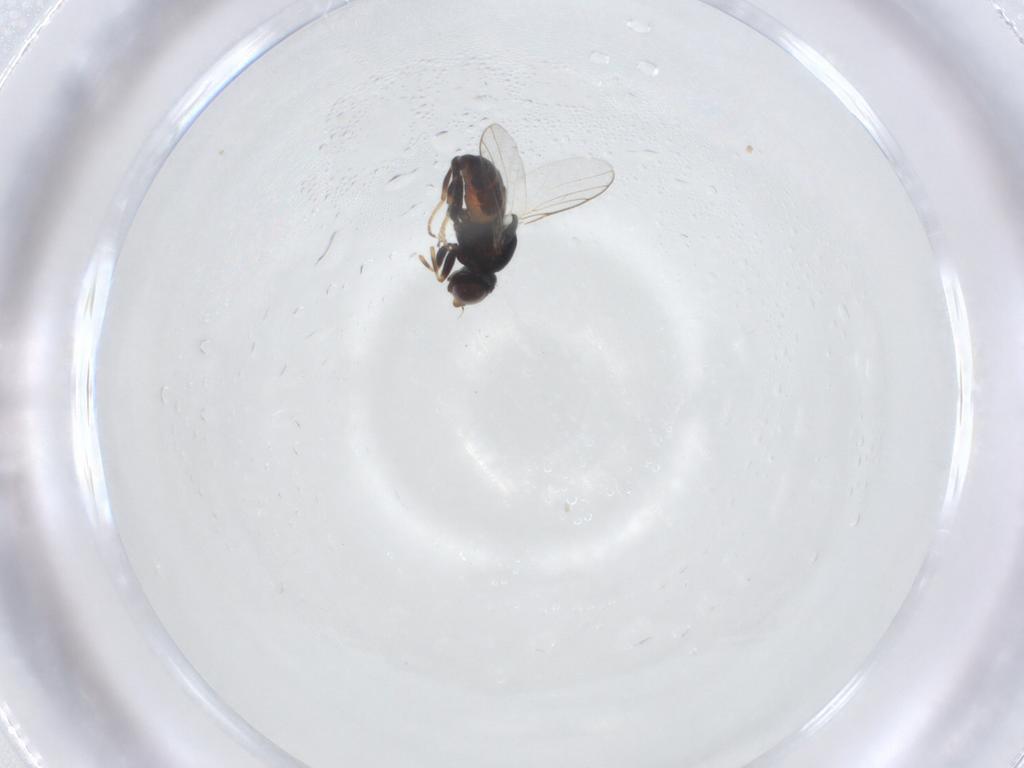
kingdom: Animalia
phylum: Arthropoda
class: Insecta
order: Diptera
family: Chloropidae
